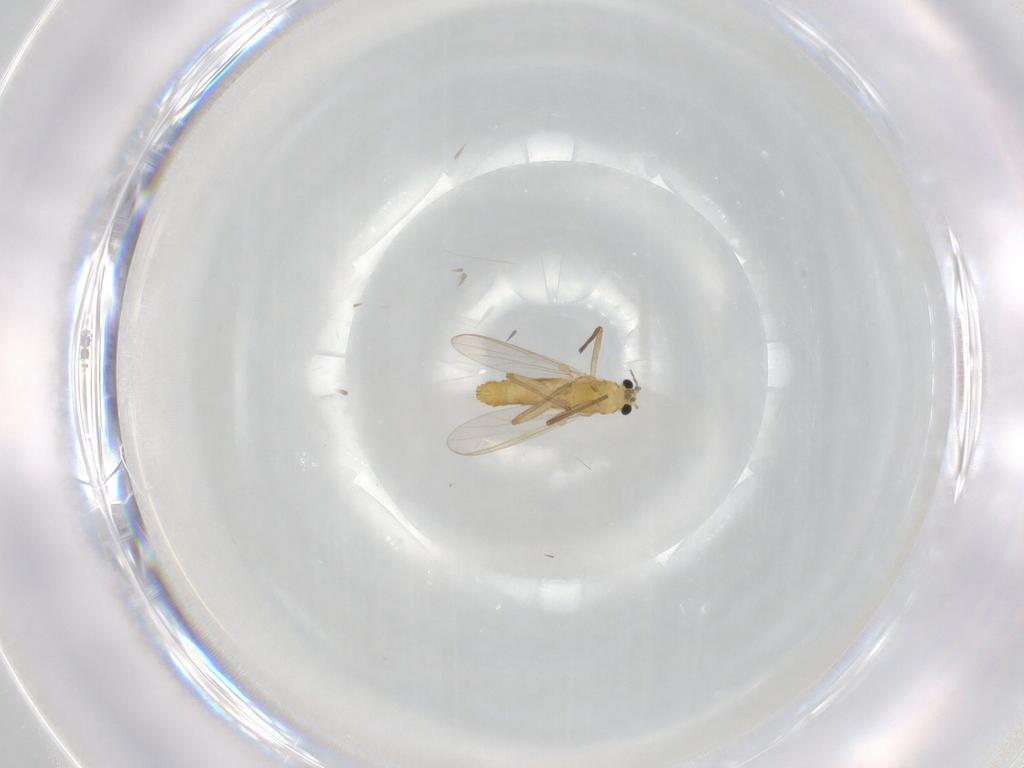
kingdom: Animalia
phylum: Arthropoda
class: Insecta
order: Diptera
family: Chironomidae
